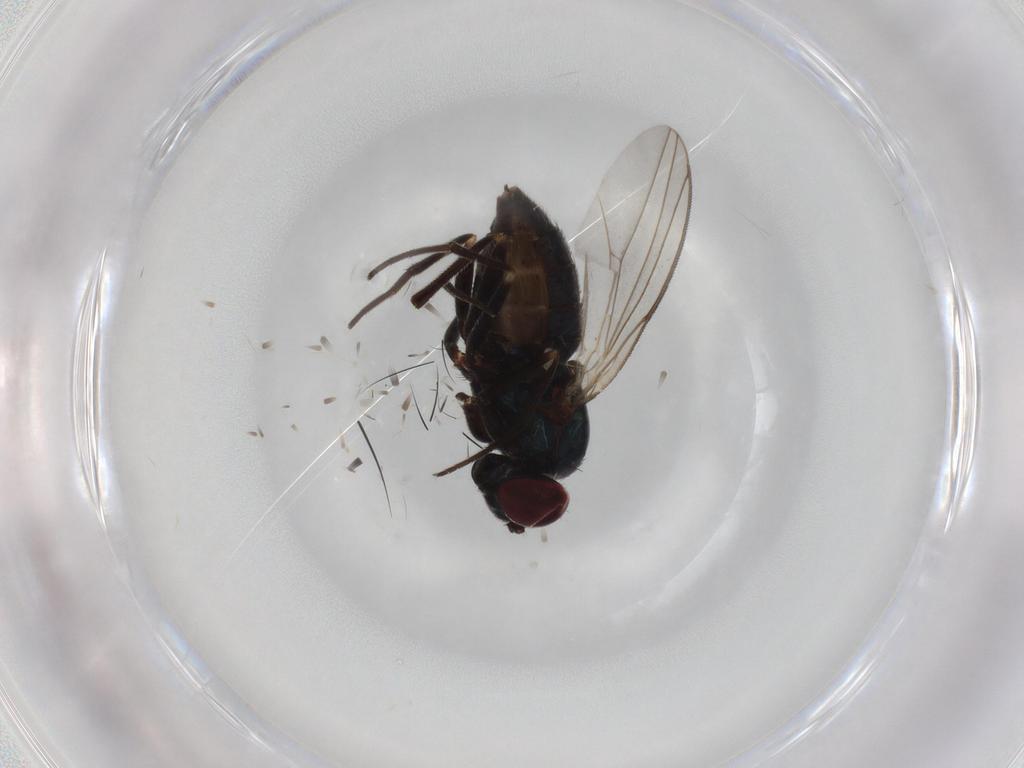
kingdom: Animalia
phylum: Arthropoda
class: Insecta
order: Diptera
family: Dolichopodidae
